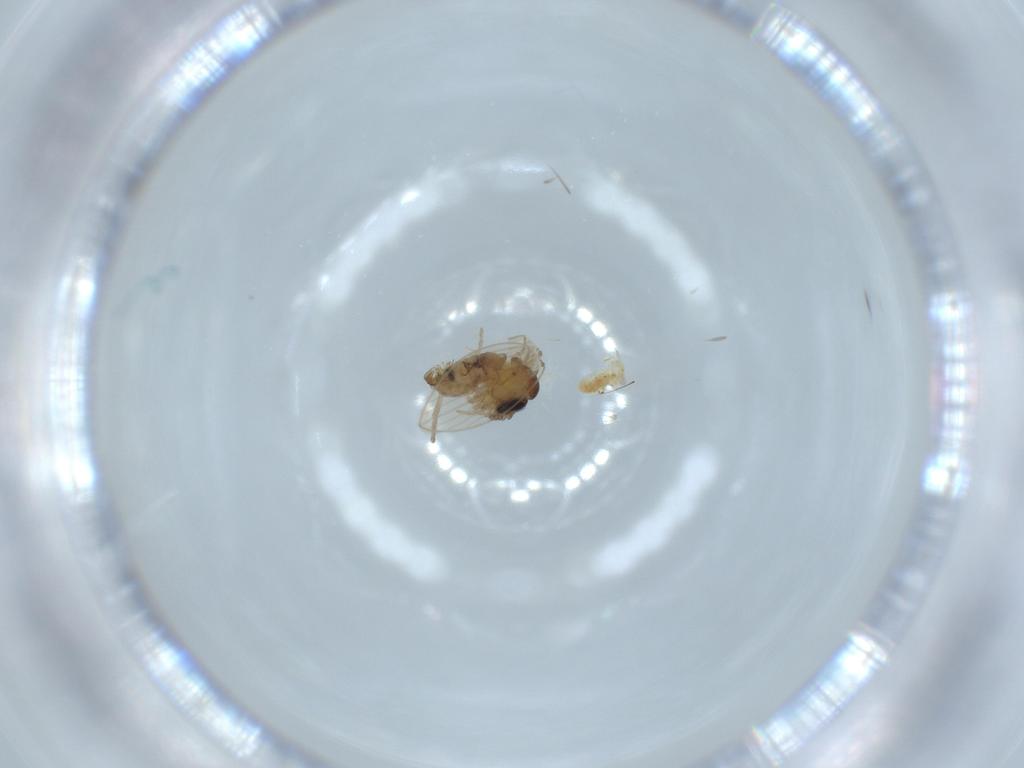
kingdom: Animalia
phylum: Arthropoda
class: Insecta
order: Diptera
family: Psychodidae
